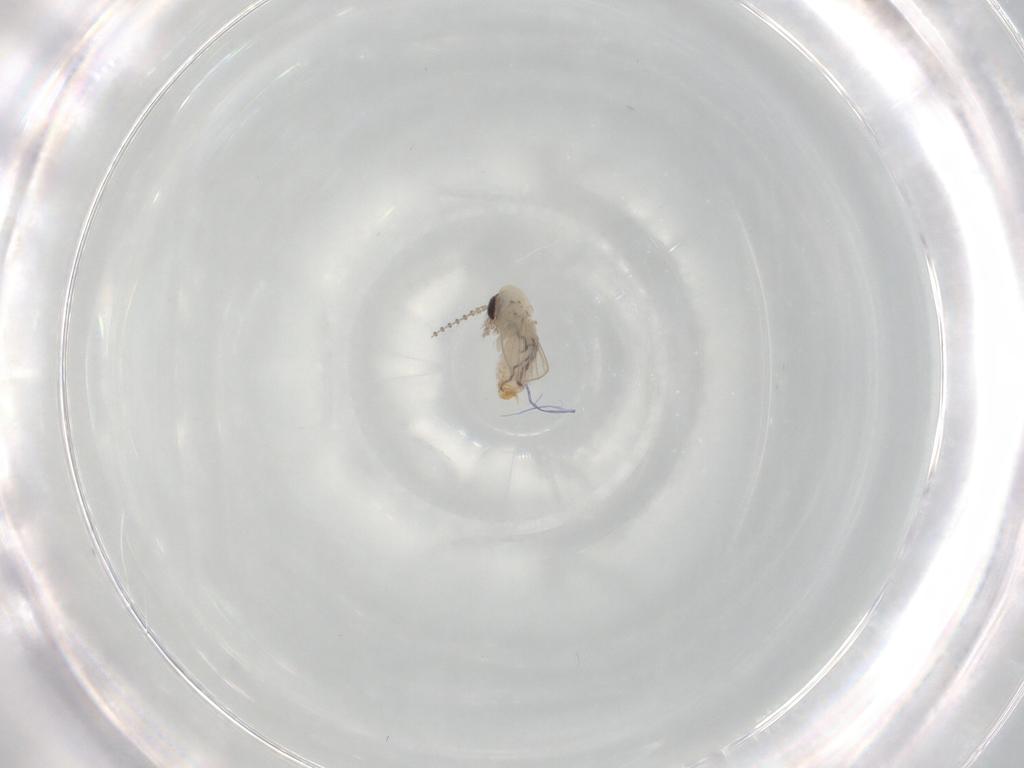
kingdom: Animalia
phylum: Arthropoda
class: Insecta
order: Diptera
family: Psychodidae
